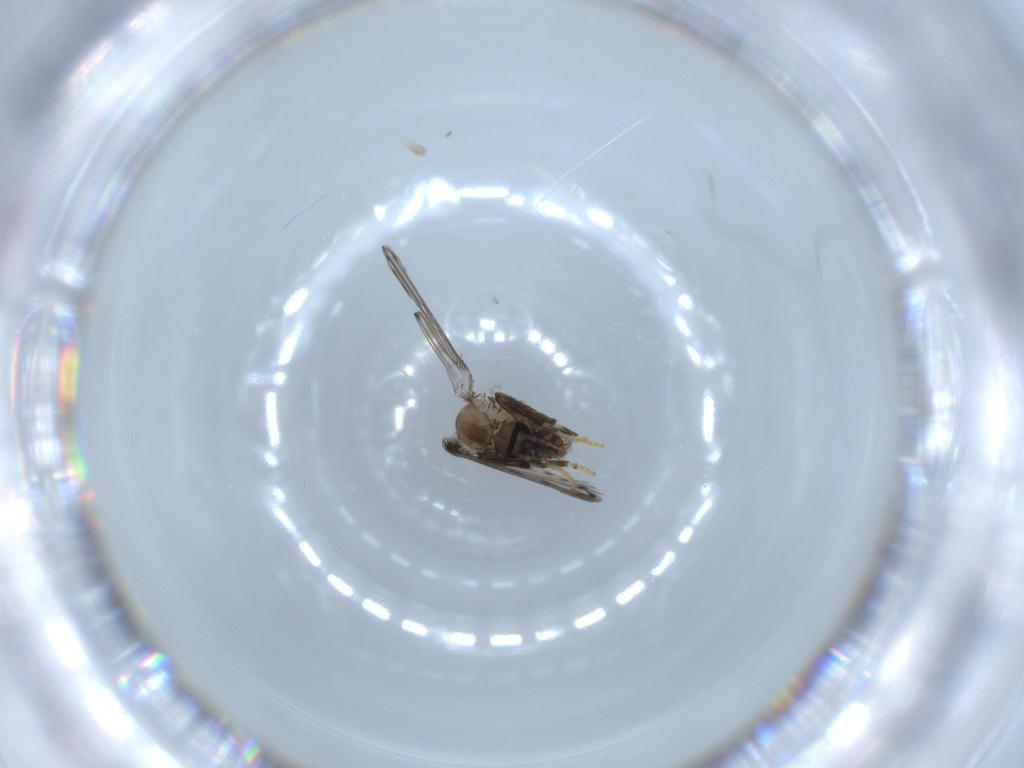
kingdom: Animalia
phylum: Arthropoda
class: Insecta
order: Diptera
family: Psychodidae
